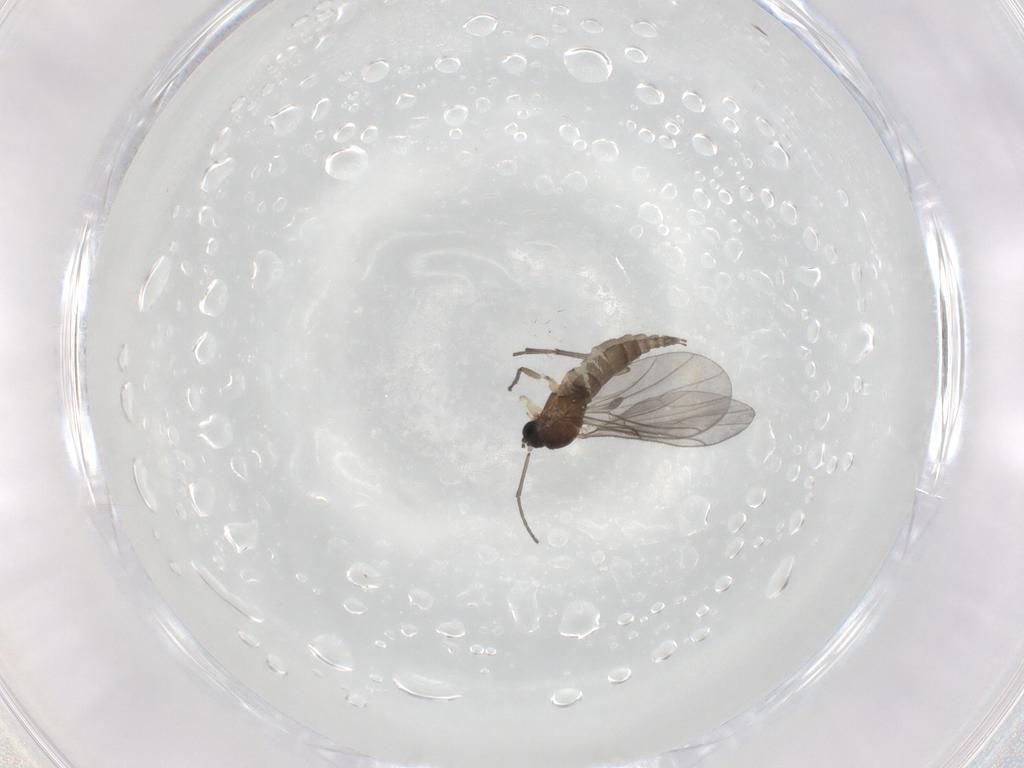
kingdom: Animalia
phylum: Arthropoda
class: Insecta
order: Diptera
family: Sciaridae
